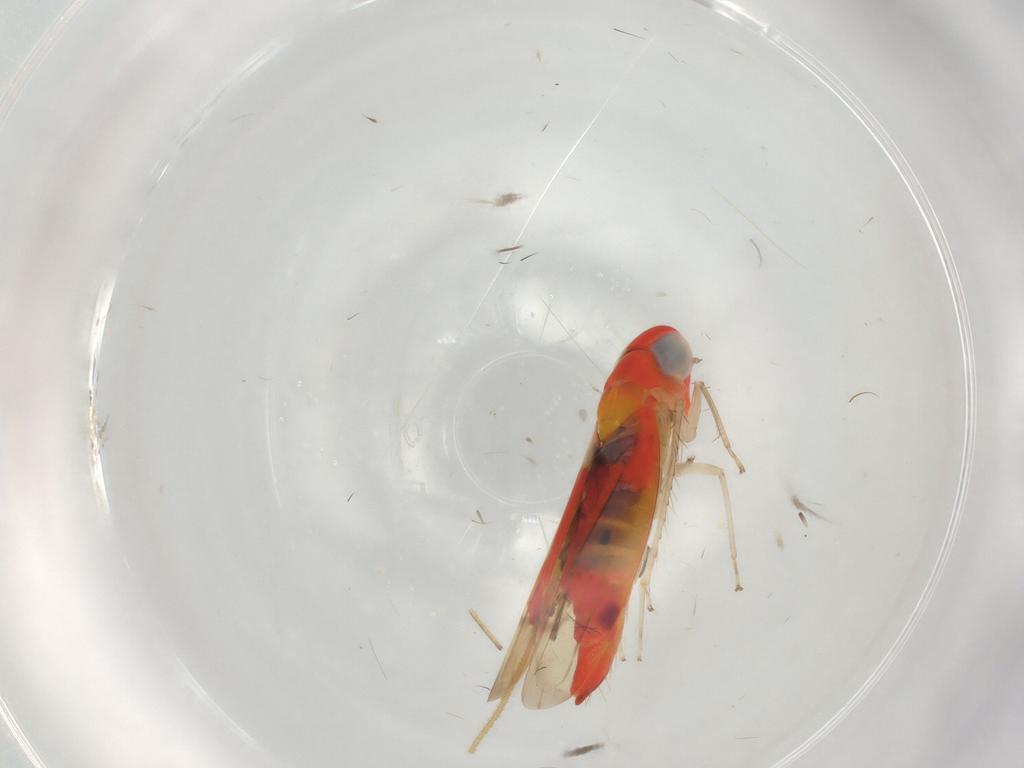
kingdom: Animalia
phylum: Arthropoda
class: Insecta
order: Hemiptera
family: Cicadellidae
